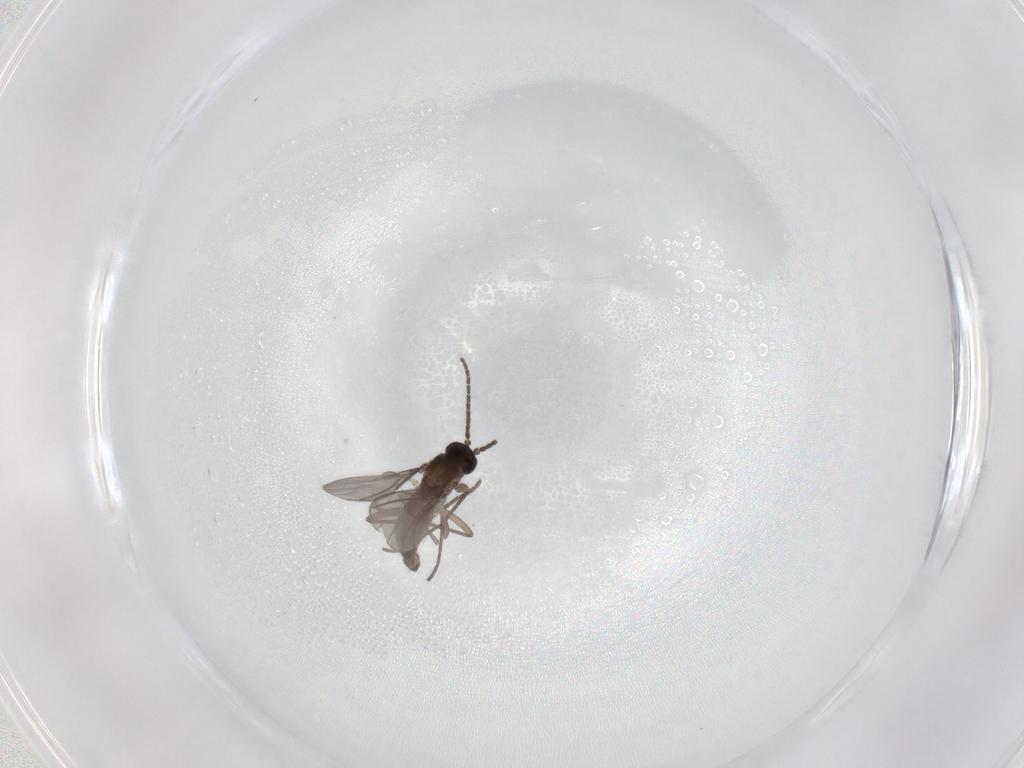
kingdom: Animalia
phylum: Arthropoda
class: Insecta
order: Diptera
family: Sciaridae
